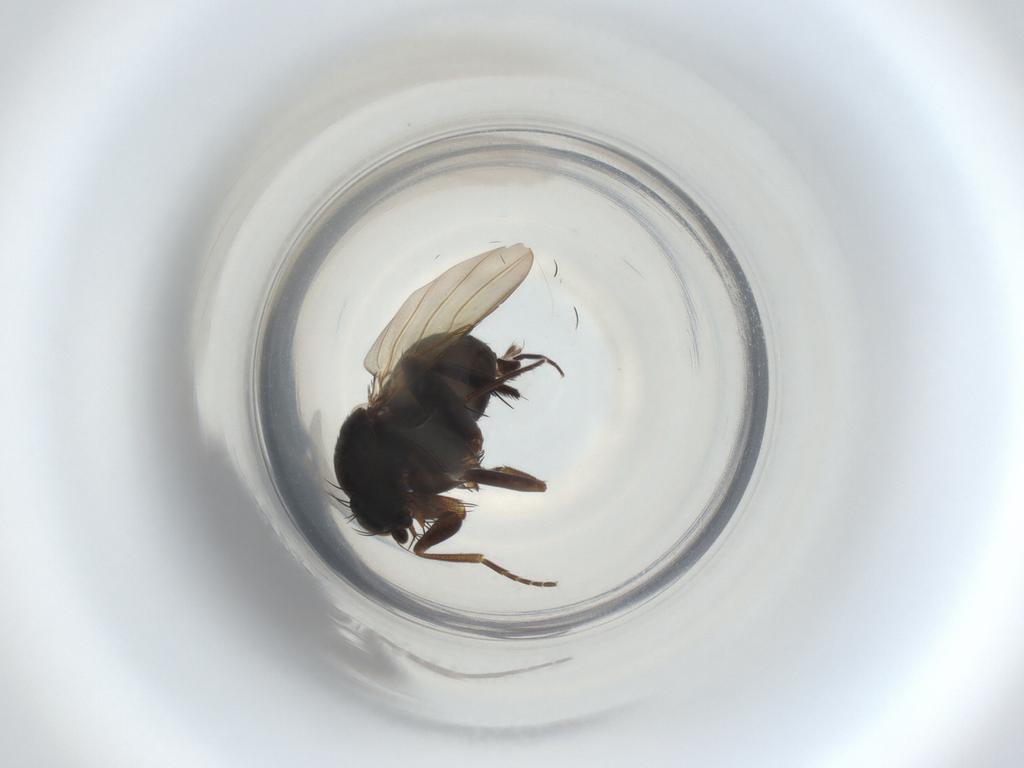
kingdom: Animalia
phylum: Arthropoda
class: Insecta
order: Diptera
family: Phoridae
